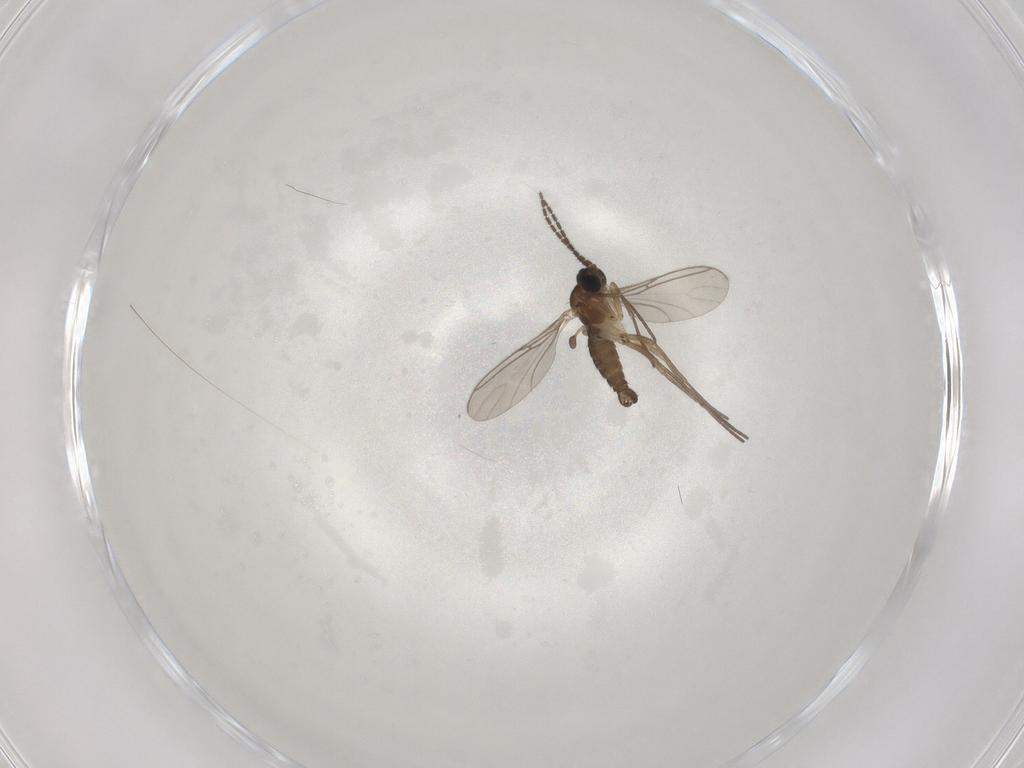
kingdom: Animalia
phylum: Arthropoda
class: Insecta
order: Diptera
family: Sciaridae
